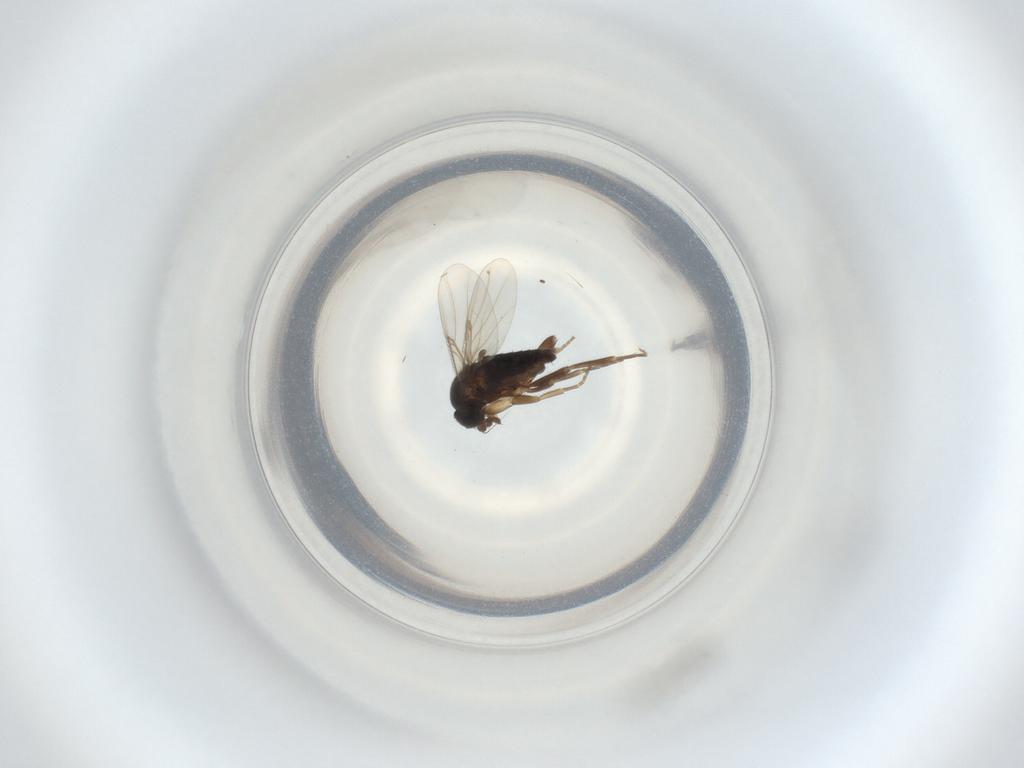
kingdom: Animalia
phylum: Arthropoda
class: Insecta
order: Diptera
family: Phoridae
